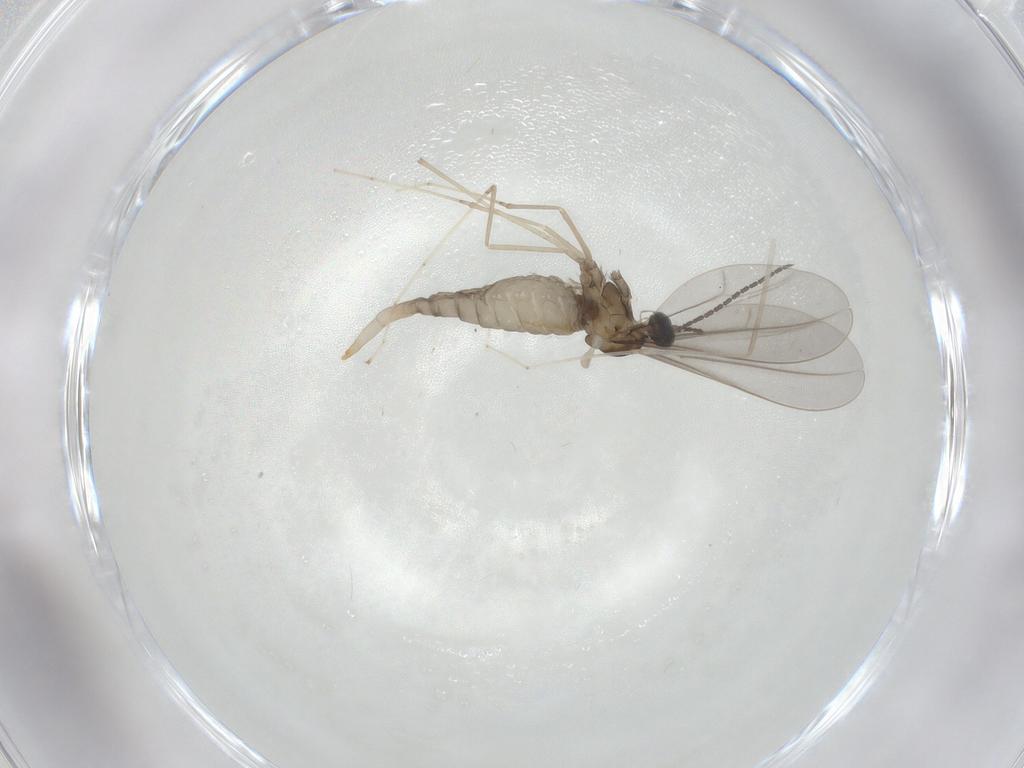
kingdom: Animalia
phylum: Arthropoda
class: Insecta
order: Diptera
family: Cecidomyiidae
